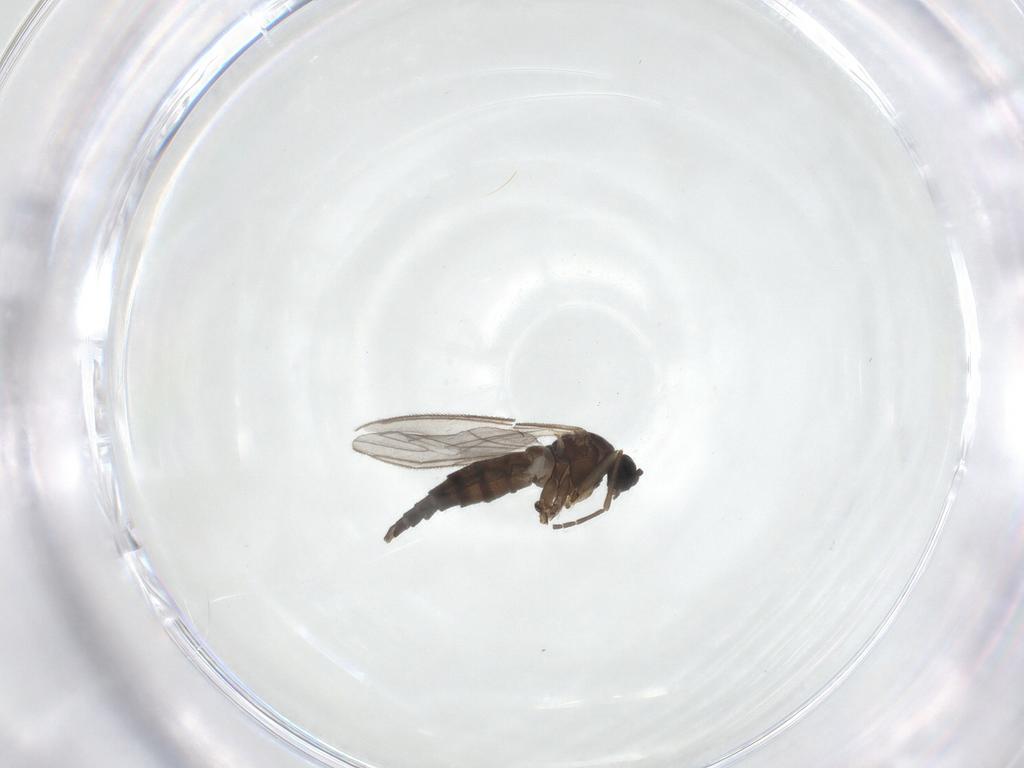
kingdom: Animalia
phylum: Arthropoda
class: Insecta
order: Diptera
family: Sciaridae
